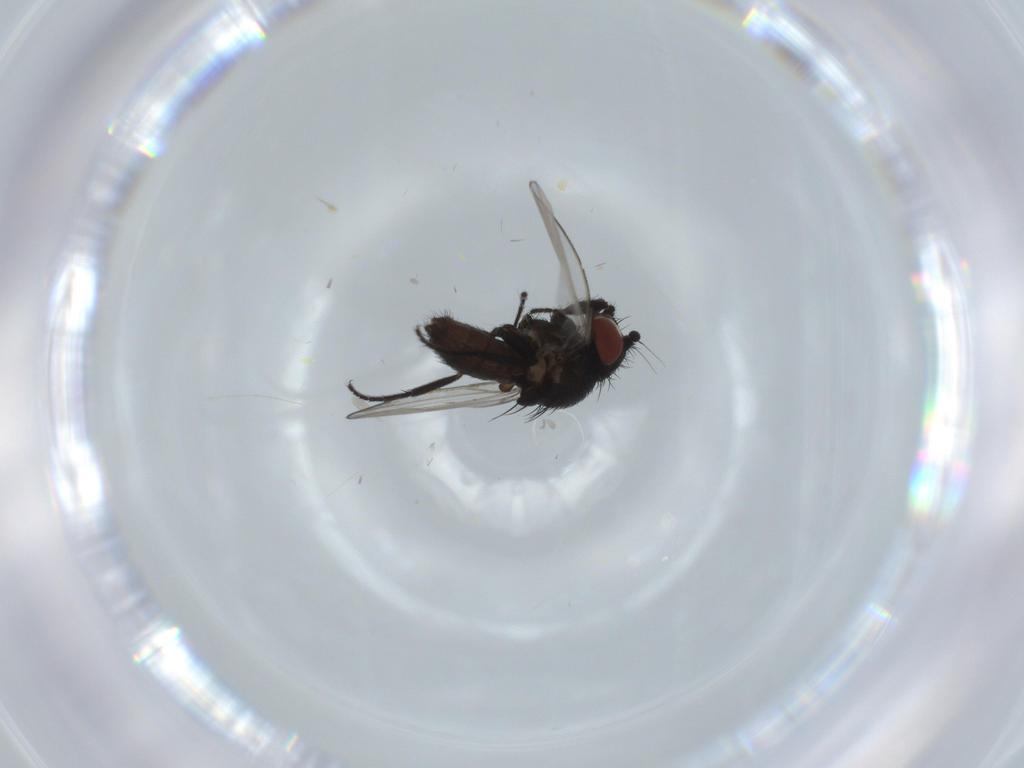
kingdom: Animalia
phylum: Arthropoda
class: Insecta
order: Diptera
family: Milichiidae
